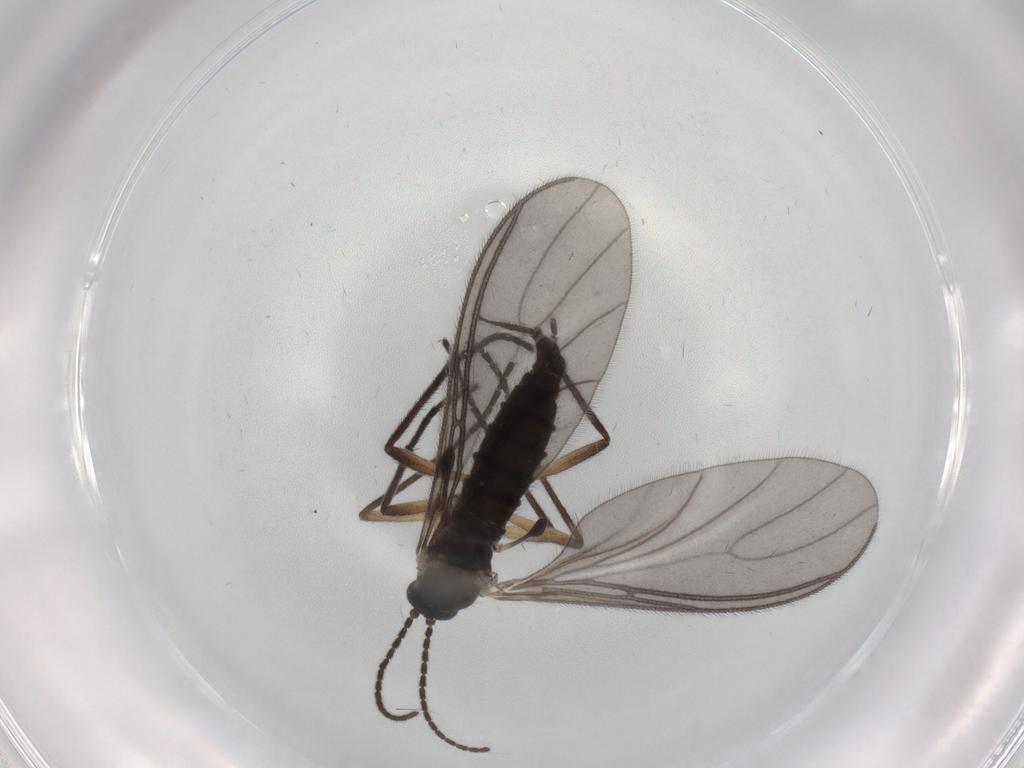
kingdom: Animalia
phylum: Arthropoda
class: Insecta
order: Diptera
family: Sciaridae
